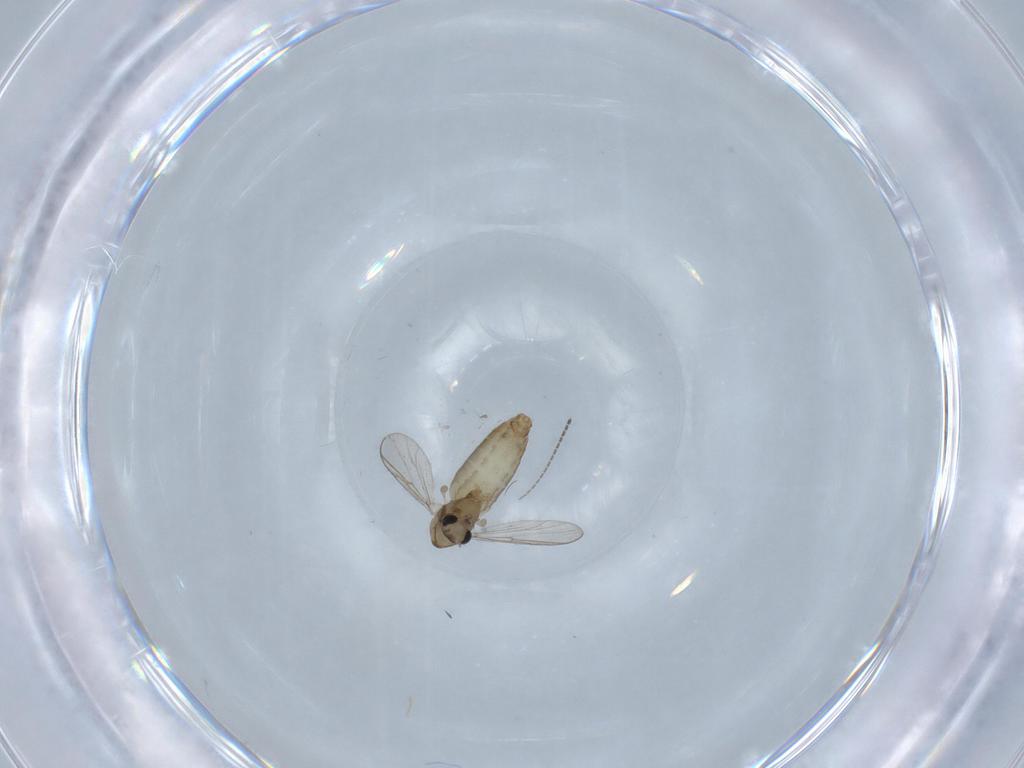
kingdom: Animalia
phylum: Arthropoda
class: Insecta
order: Diptera
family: Chironomidae
